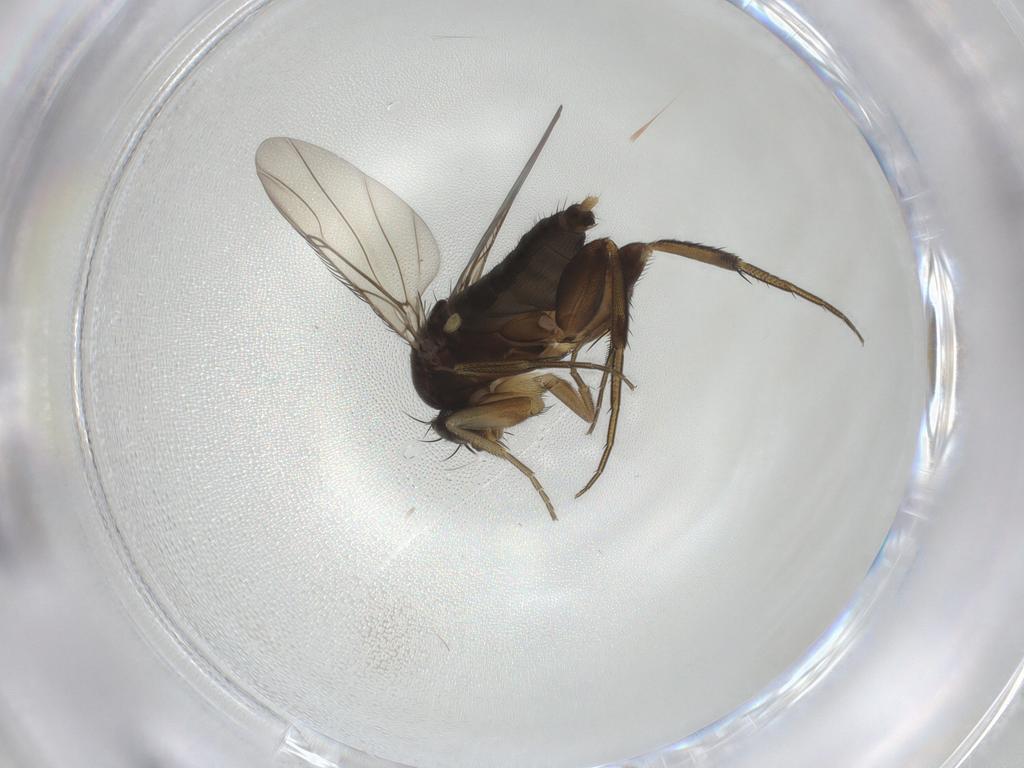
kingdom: Animalia
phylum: Arthropoda
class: Insecta
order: Diptera
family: Phoridae
